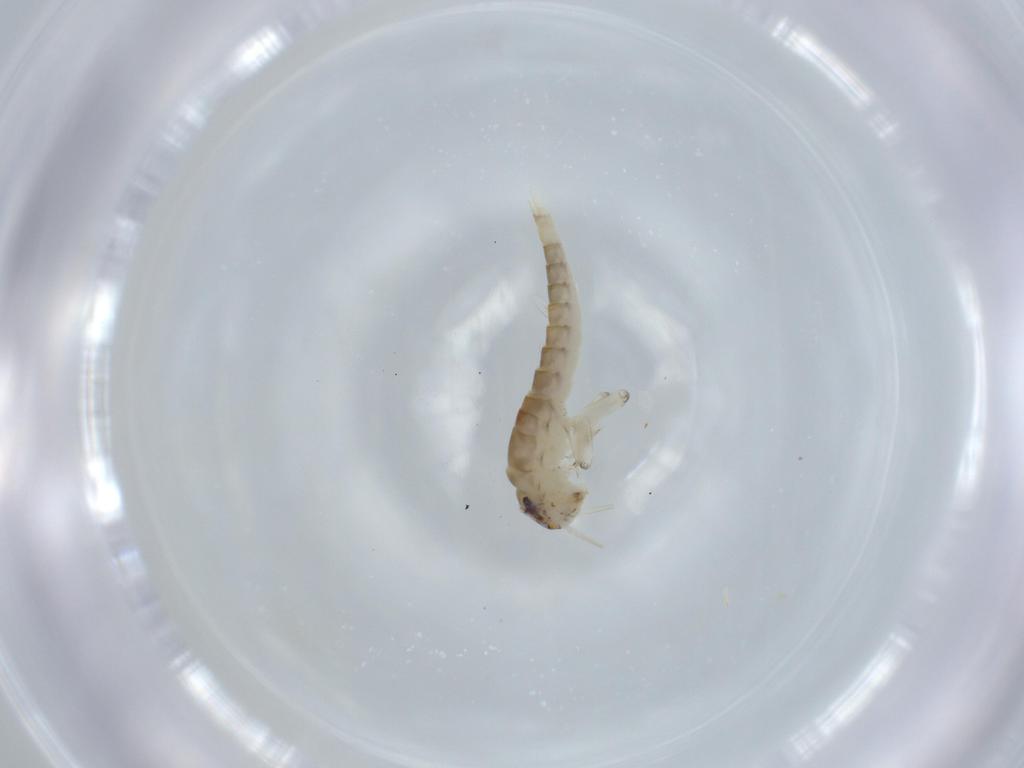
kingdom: Animalia
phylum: Arthropoda
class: Insecta
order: Ephemeroptera
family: Baetidae
